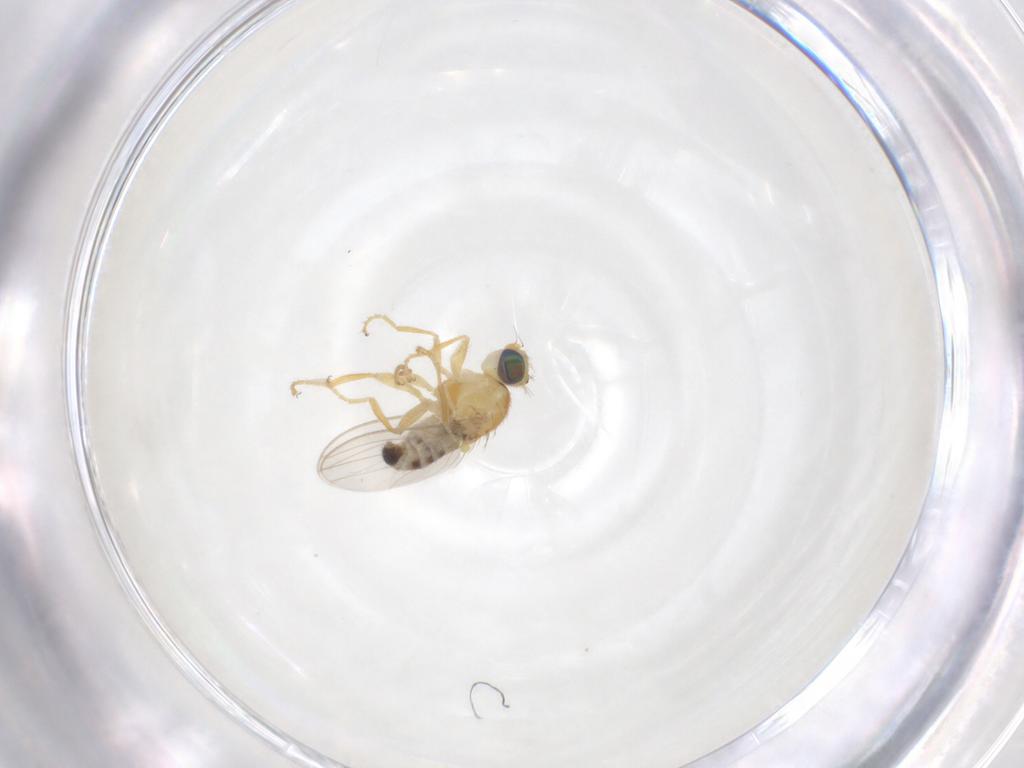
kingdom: Animalia
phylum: Arthropoda
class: Insecta
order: Diptera
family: Chyromyidae
